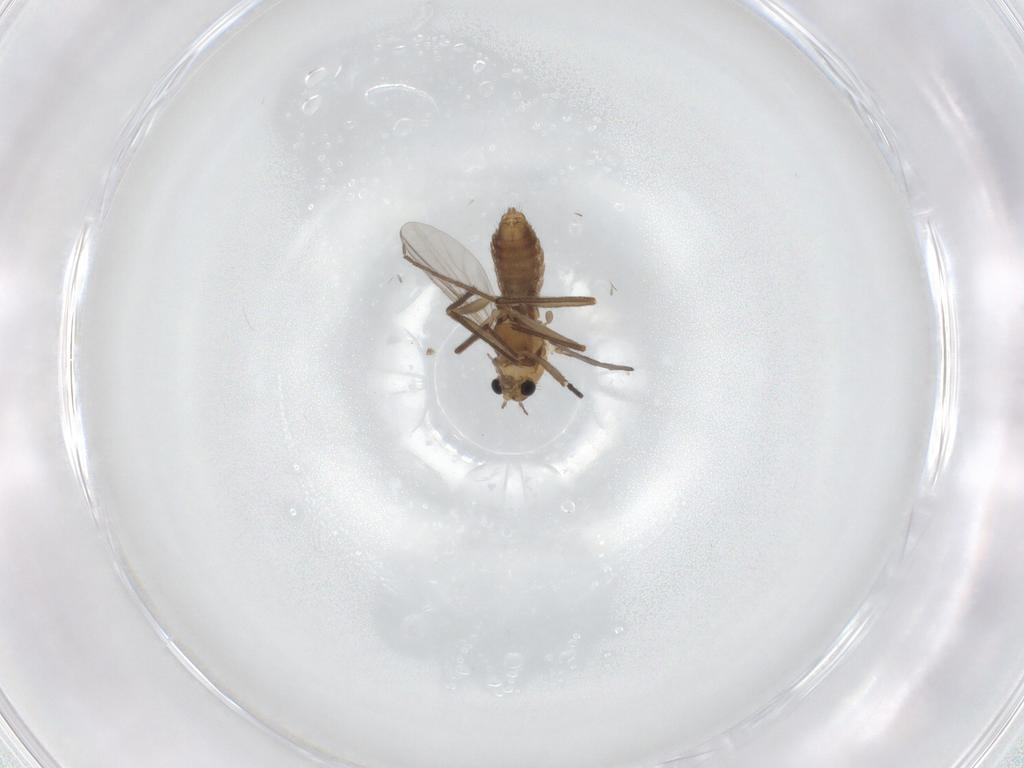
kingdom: Animalia
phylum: Arthropoda
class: Insecta
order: Diptera
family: Chironomidae
